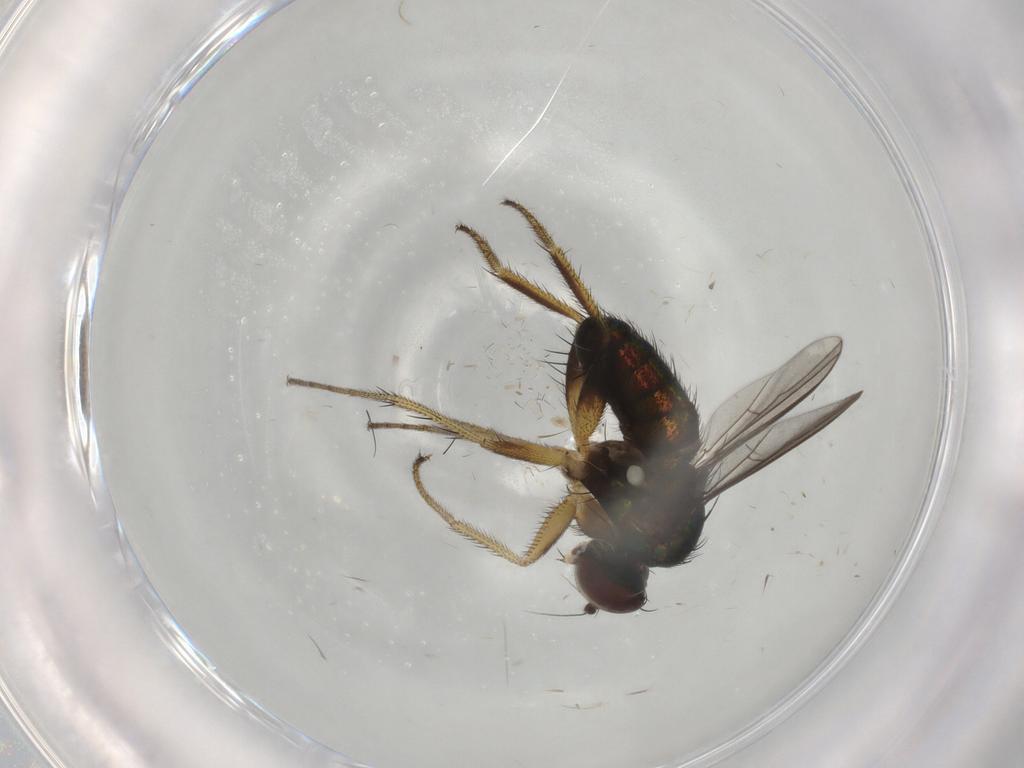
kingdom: Animalia
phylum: Arthropoda
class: Insecta
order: Diptera
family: Dolichopodidae
